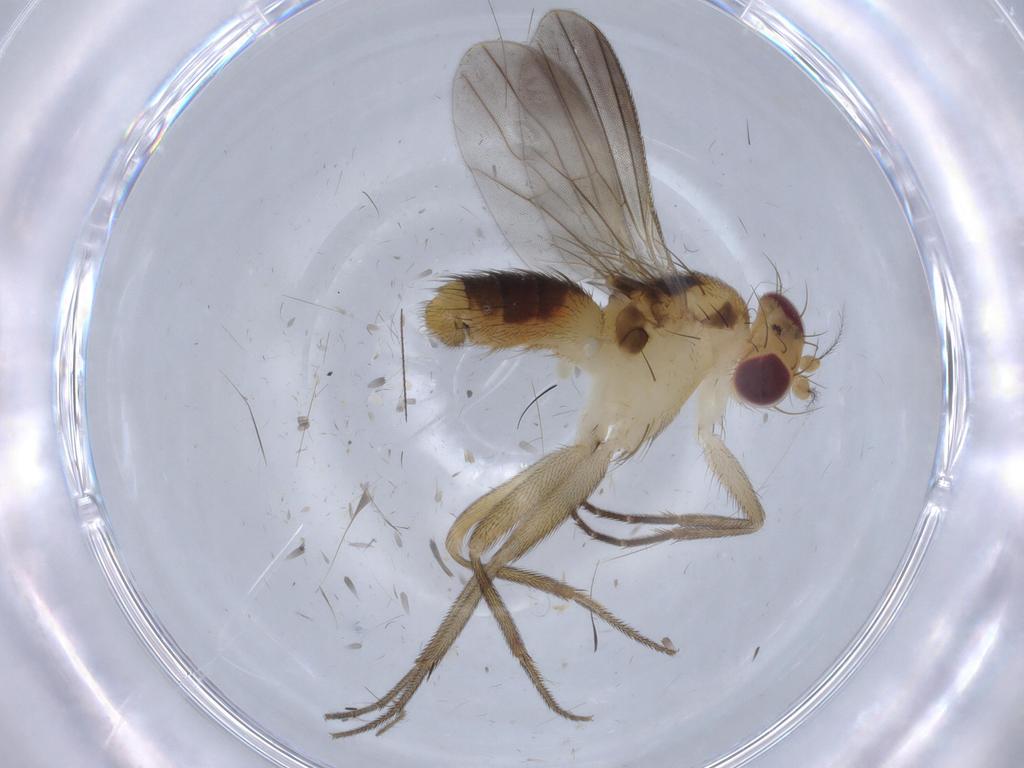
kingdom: Animalia
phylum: Arthropoda
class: Insecta
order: Diptera
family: Clusiidae
